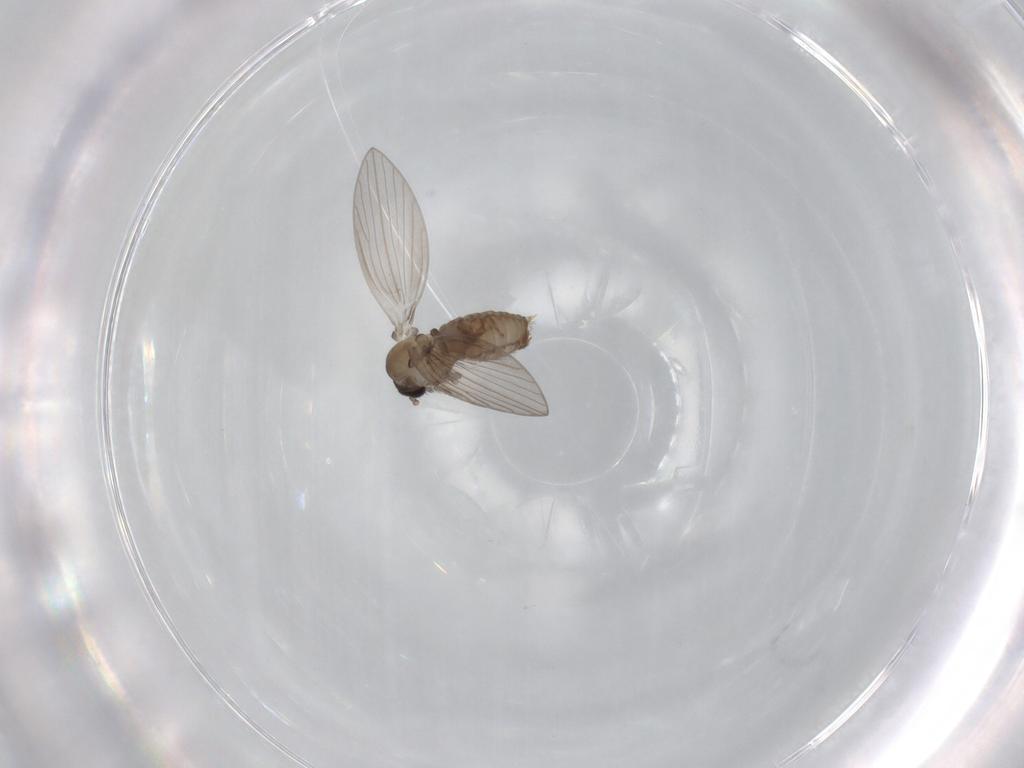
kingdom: Animalia
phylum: Arthropoda
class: Insecta
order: Diptera
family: Psychodidae
